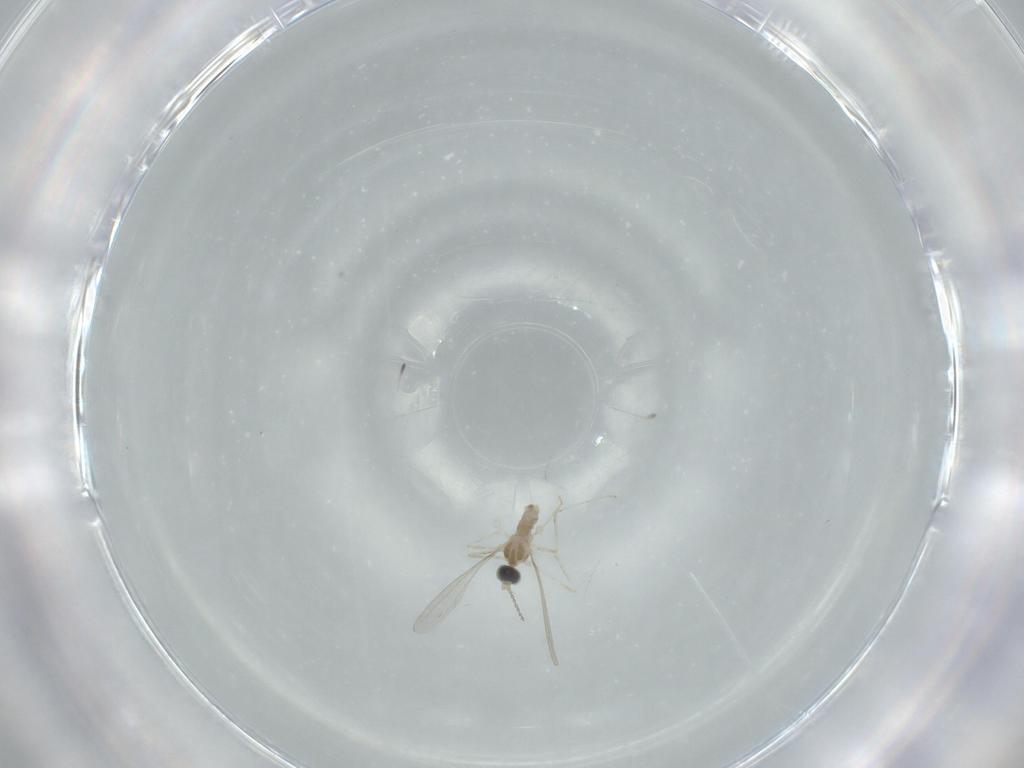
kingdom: Animalia
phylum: Arthropoda
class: Insecta
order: Diptera
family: Cecidomyiidae
